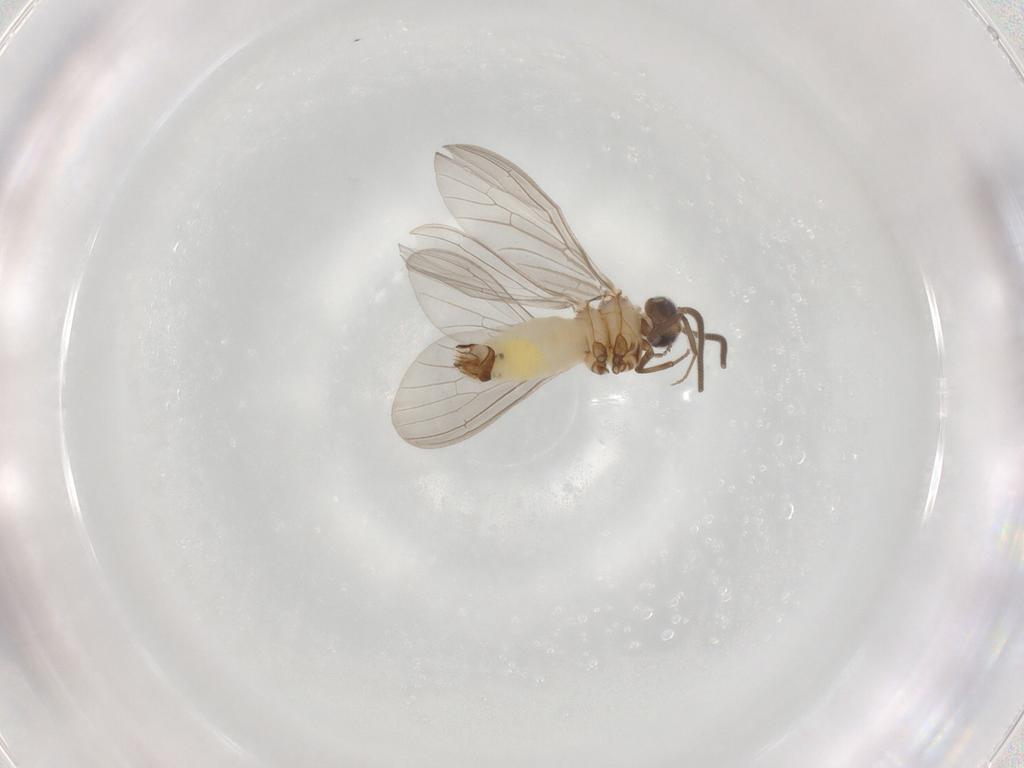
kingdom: Animalia
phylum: Arthropoda
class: Insecta
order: Neuroptera
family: Coniopterygidae
